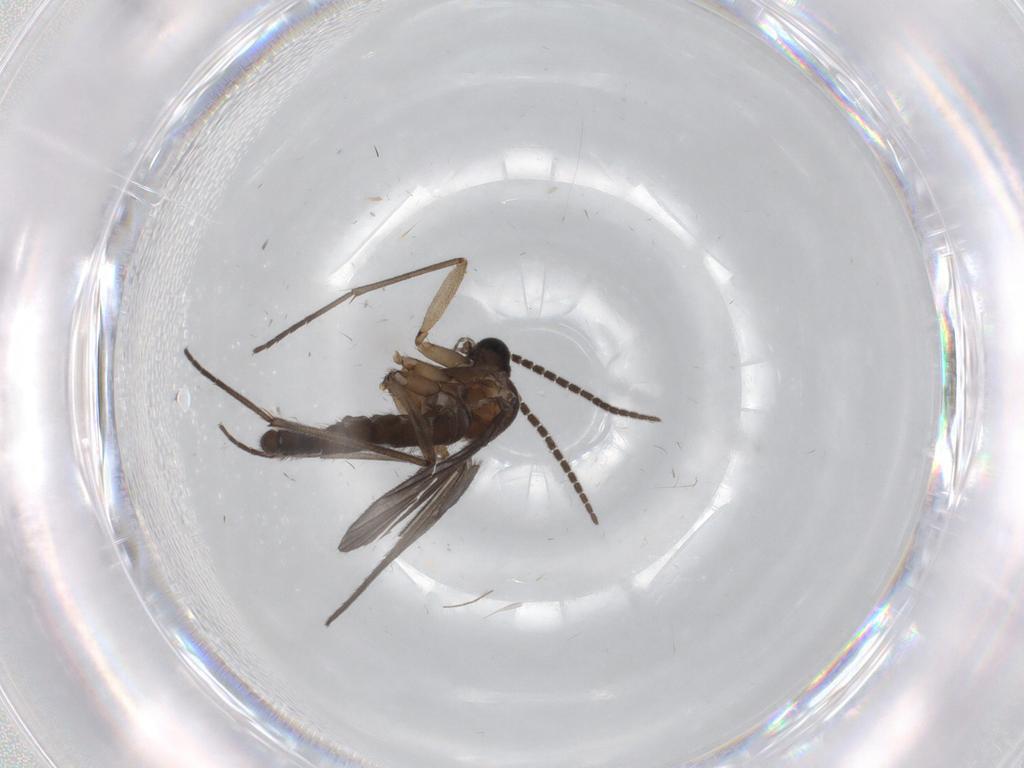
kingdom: Animalia
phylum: Arthropoda
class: Insecta
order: Diptera
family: Sciaridae
